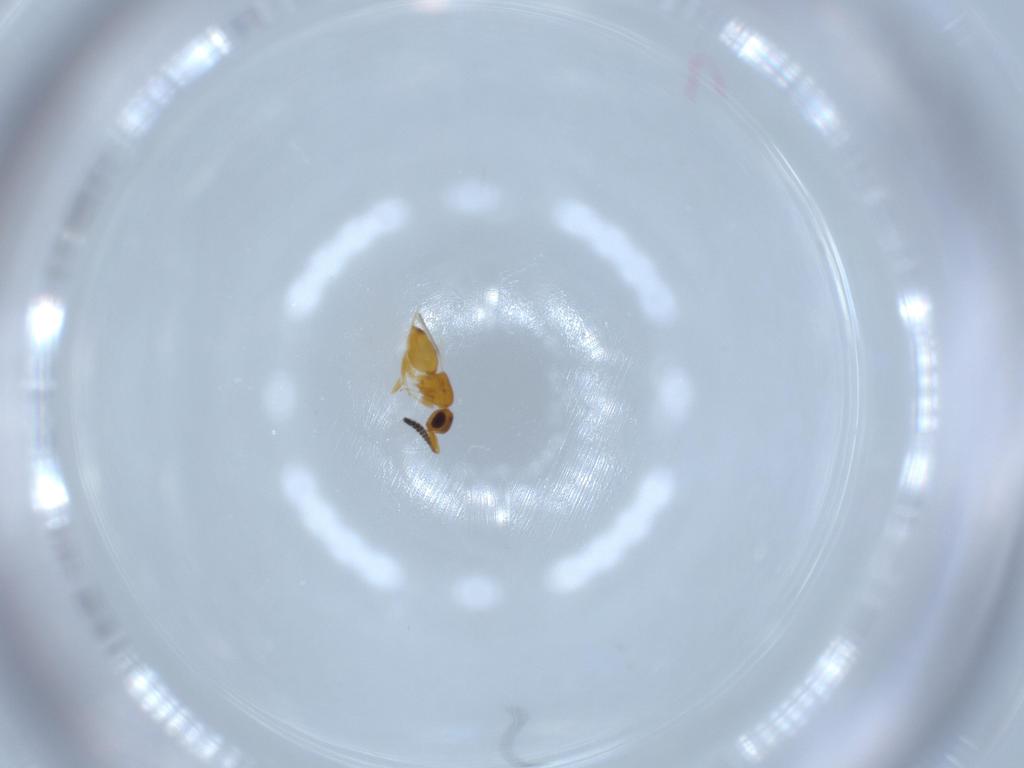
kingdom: Animalia
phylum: Arthropoda
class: Insecta
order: Hymenoptera
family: Ceraphronidae
